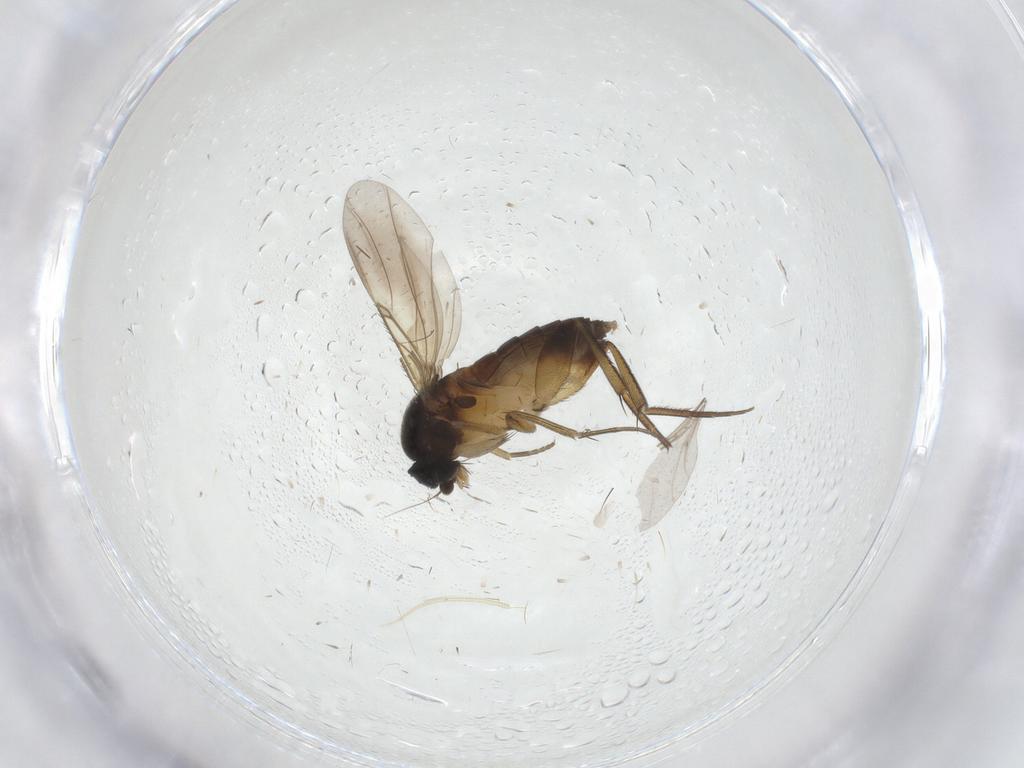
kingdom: Animalia
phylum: Arthropoda
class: Insecta
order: Diptera
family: Phoridae
